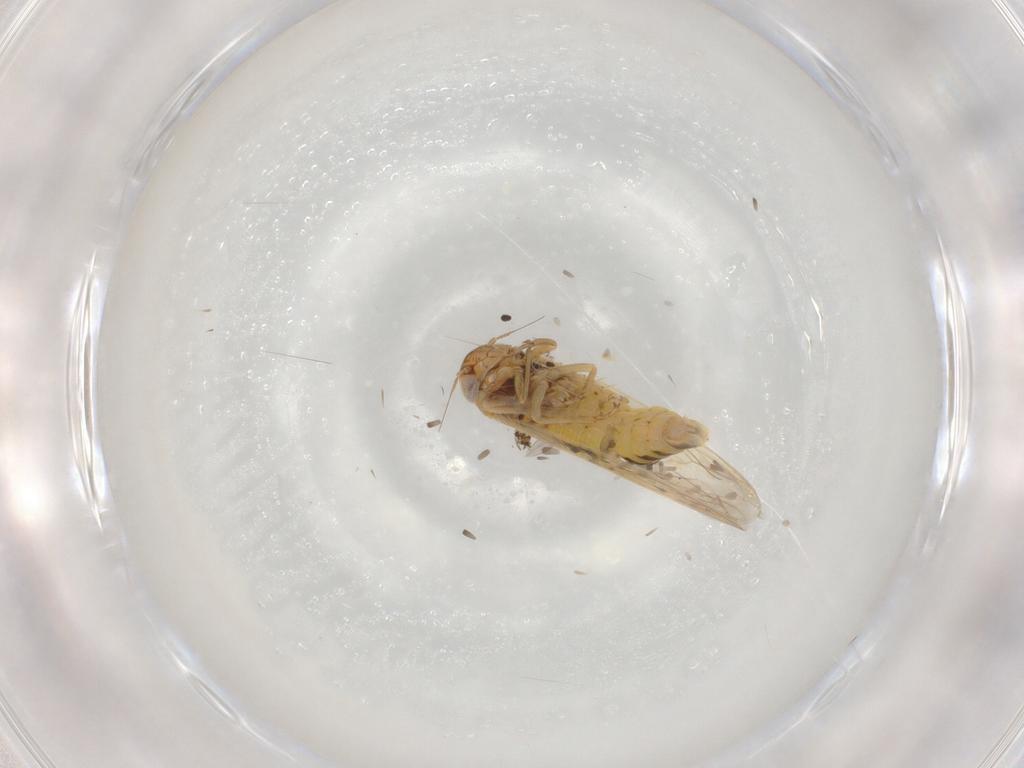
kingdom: Animalia
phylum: Arthropoda
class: Insecta
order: Hemiptera
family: Cicadellidae
